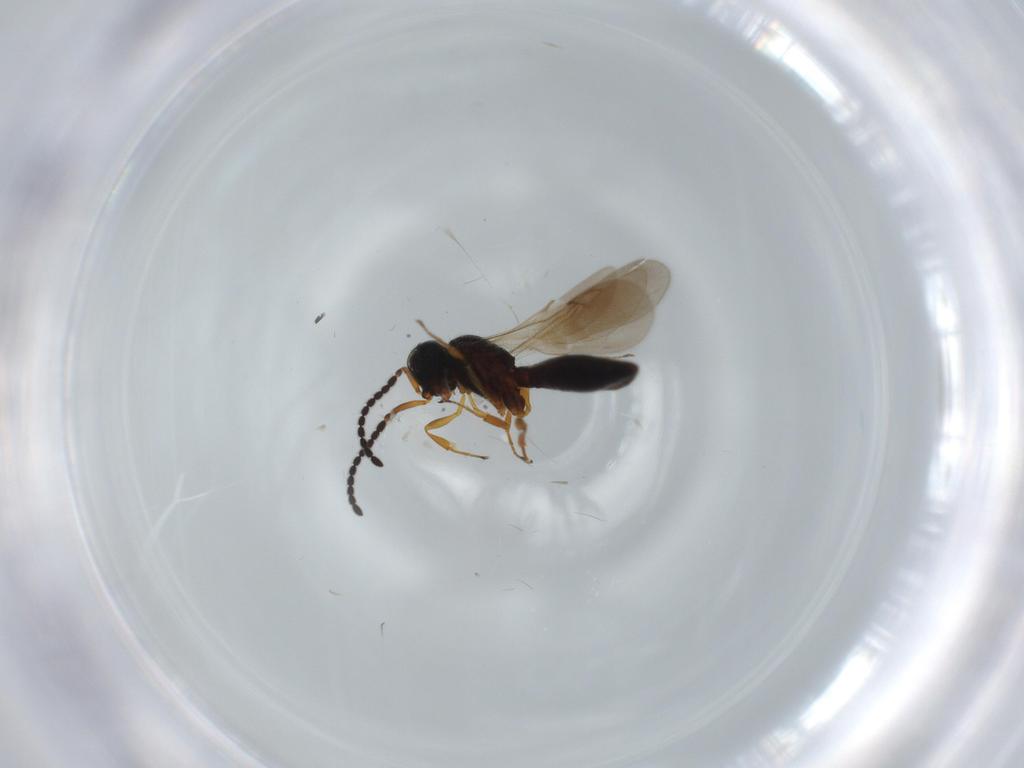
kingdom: Animalia
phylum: Arthropoda
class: Insecta
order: Hymenoptera
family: Scelionidae
